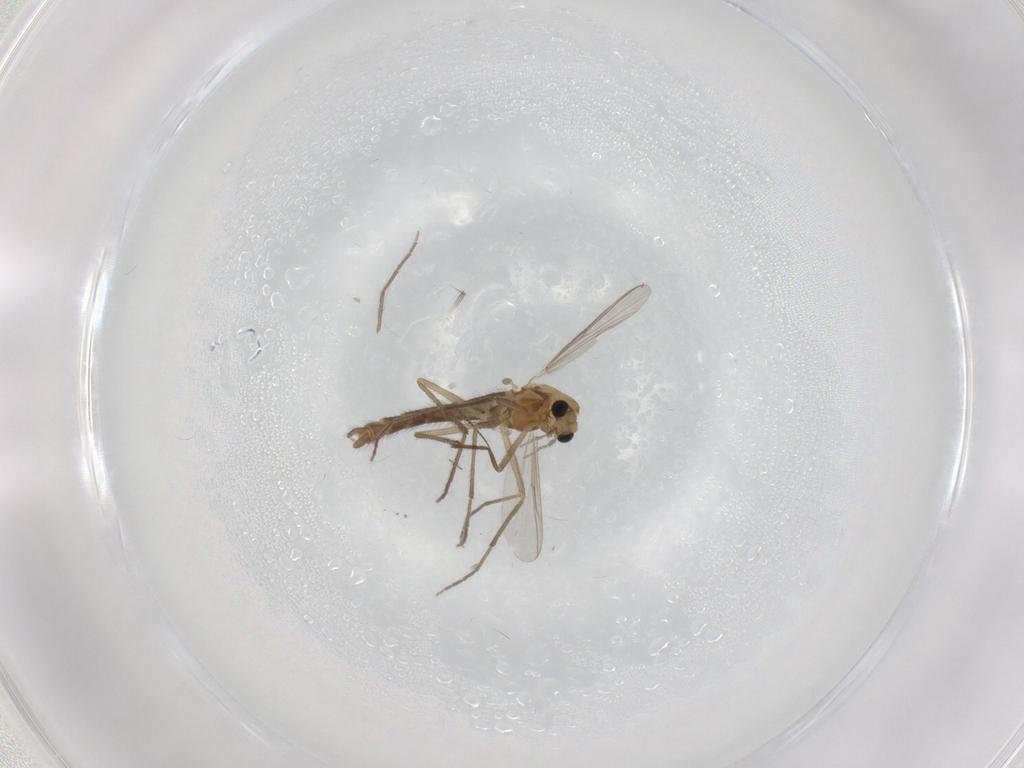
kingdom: Animalia
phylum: Arthropoda
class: Insecta
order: Diptera
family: Chironomidae
